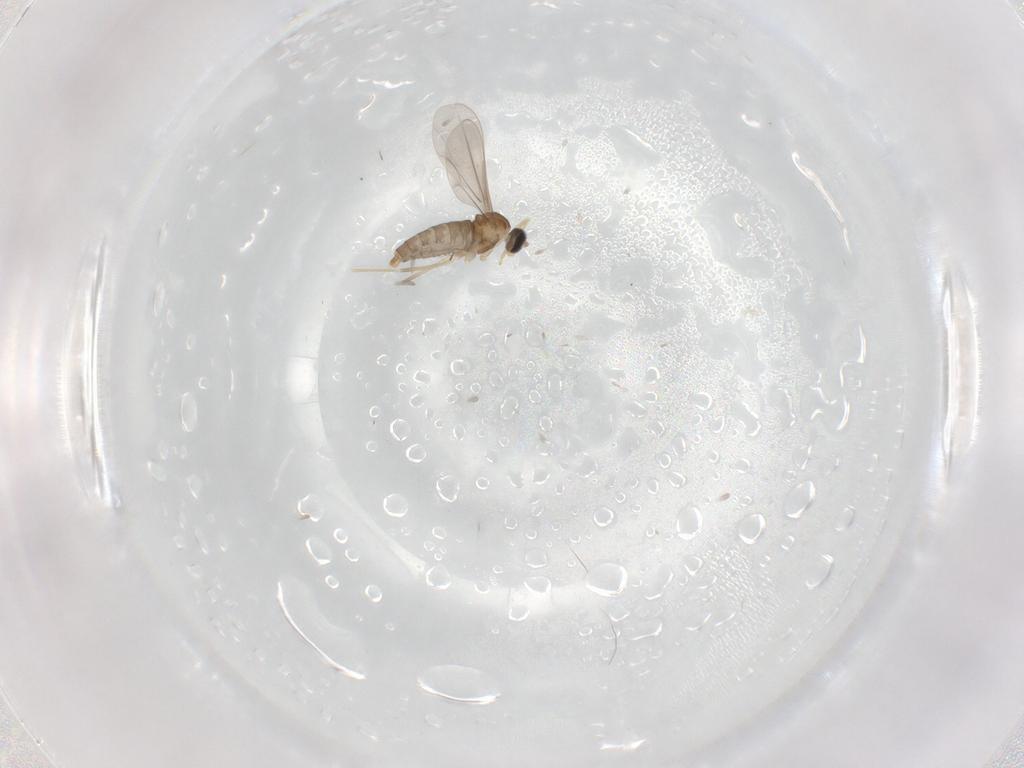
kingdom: Animalia
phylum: Arthropoda
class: Insecta
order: Diptera
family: Cecidomyiidae
